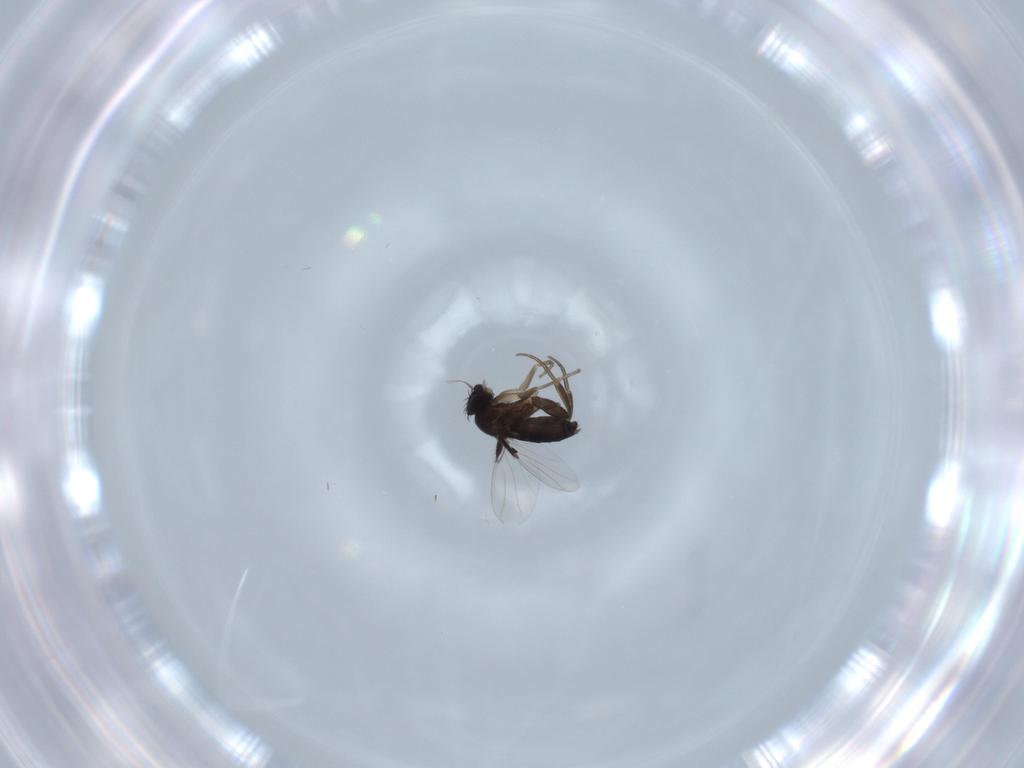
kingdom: Animalia
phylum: Arthropoda
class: Insecta
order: Diptera
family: Phoridae
